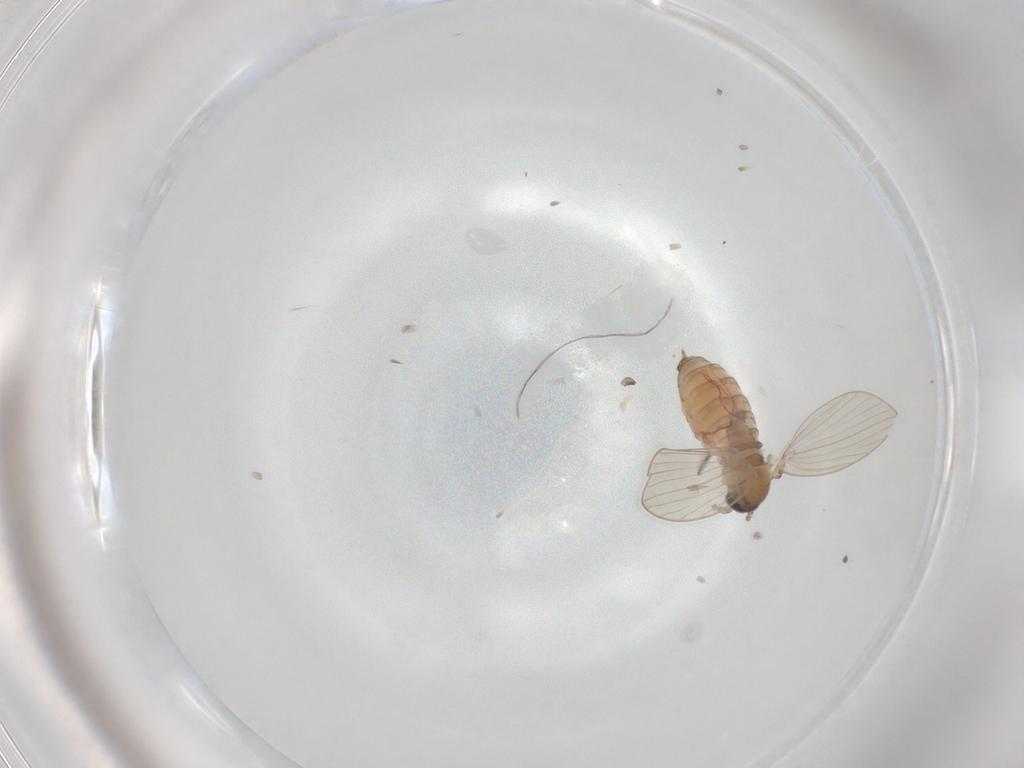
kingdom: Animalia
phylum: Arthropoda
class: Insecta
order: Diptera
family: Psychodidae
